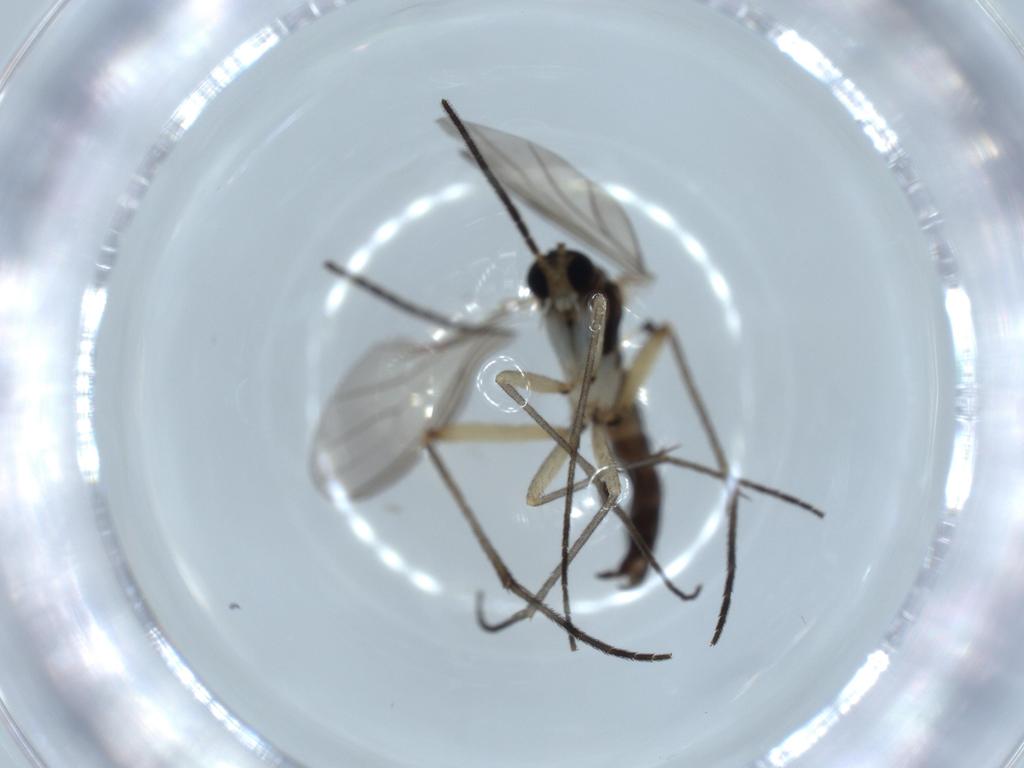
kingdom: Animalia
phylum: Arthropoda
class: Insecta
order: Diptera
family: Sciaridae
